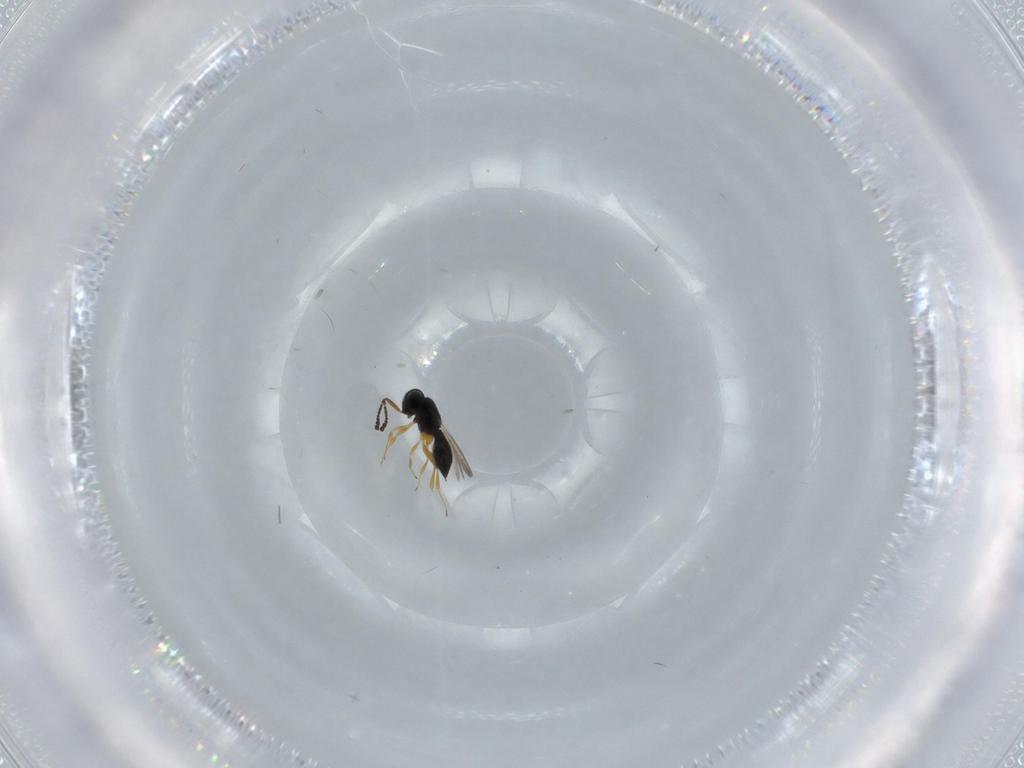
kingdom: Animalia
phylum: Arthropoda
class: Insecta
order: Hymenoptera
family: Scelionidae
